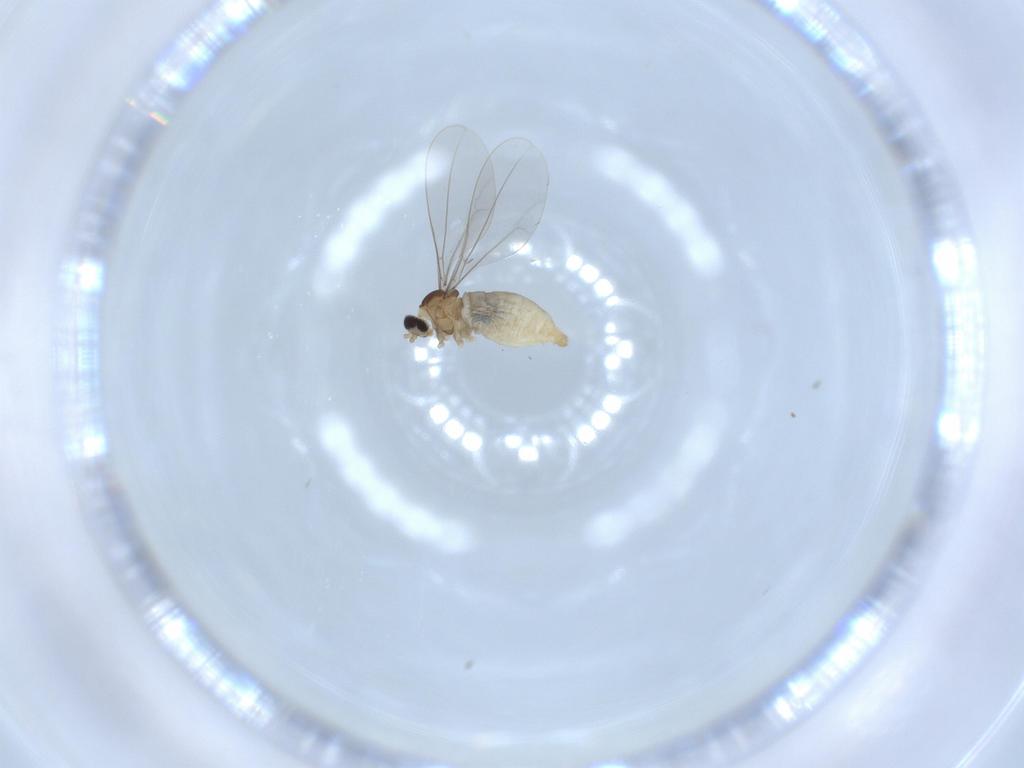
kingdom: Animalia
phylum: Arthropoda
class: Insecta
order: Diptera
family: Cecidomyiidae
